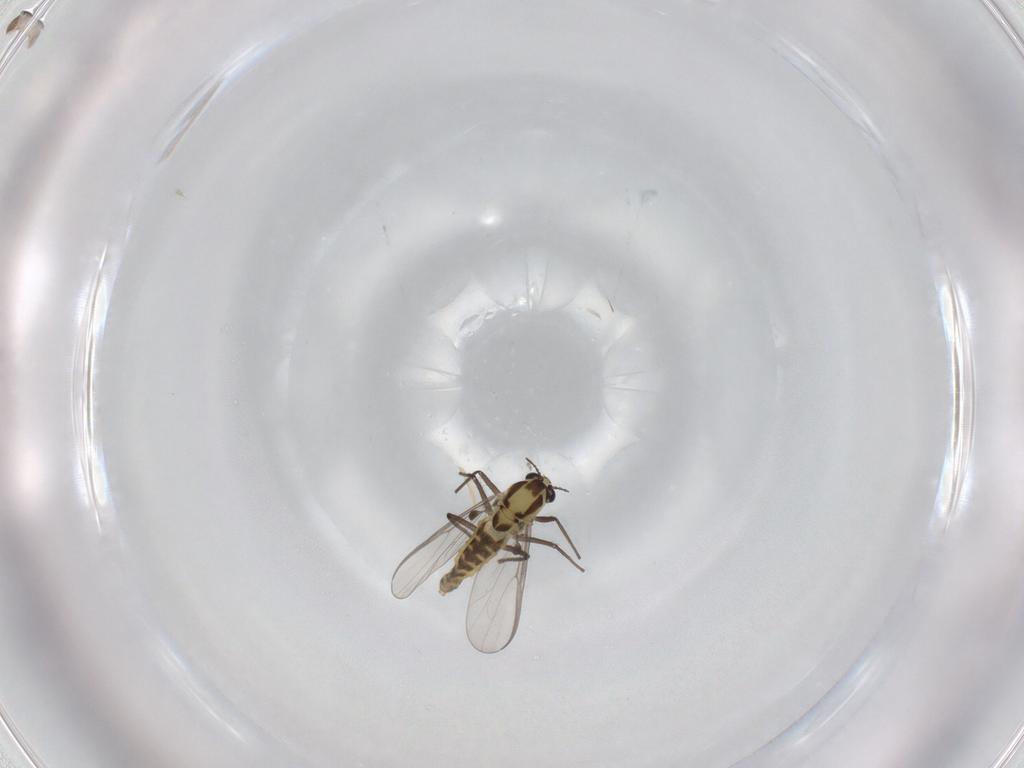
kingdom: Animalia
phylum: Arthropoda
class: Insecta
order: Diptera
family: Chironomidae
